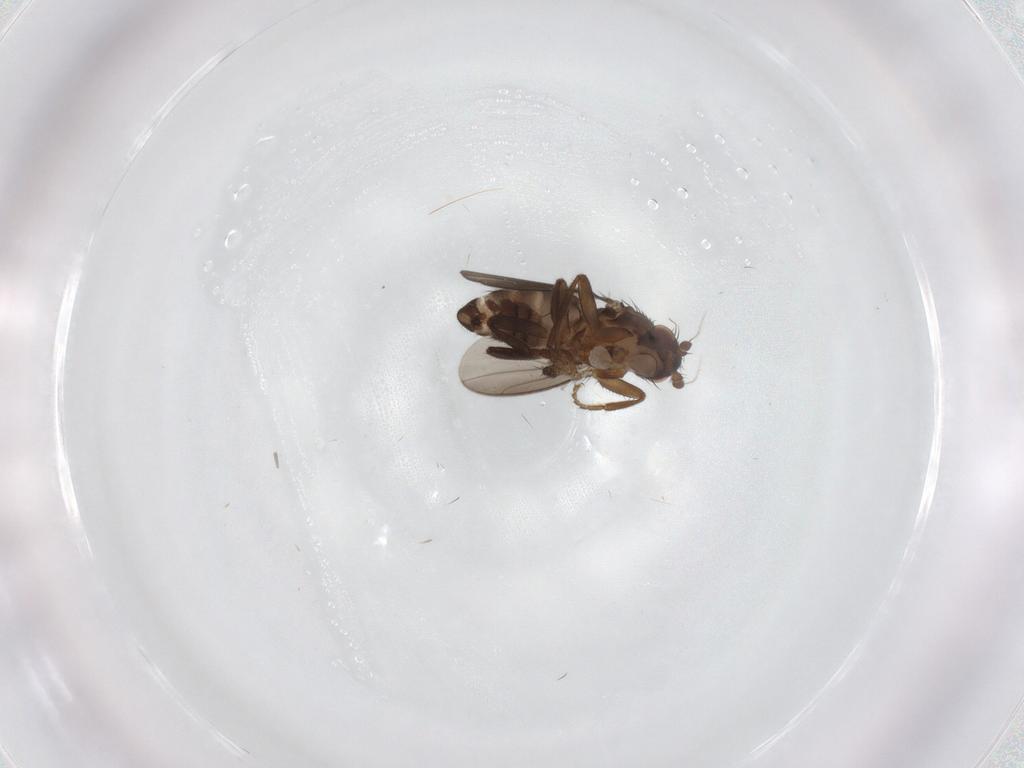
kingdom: Animalia
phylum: Arthropoda
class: Insecta
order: Diptera
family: Sphaeroceridae
